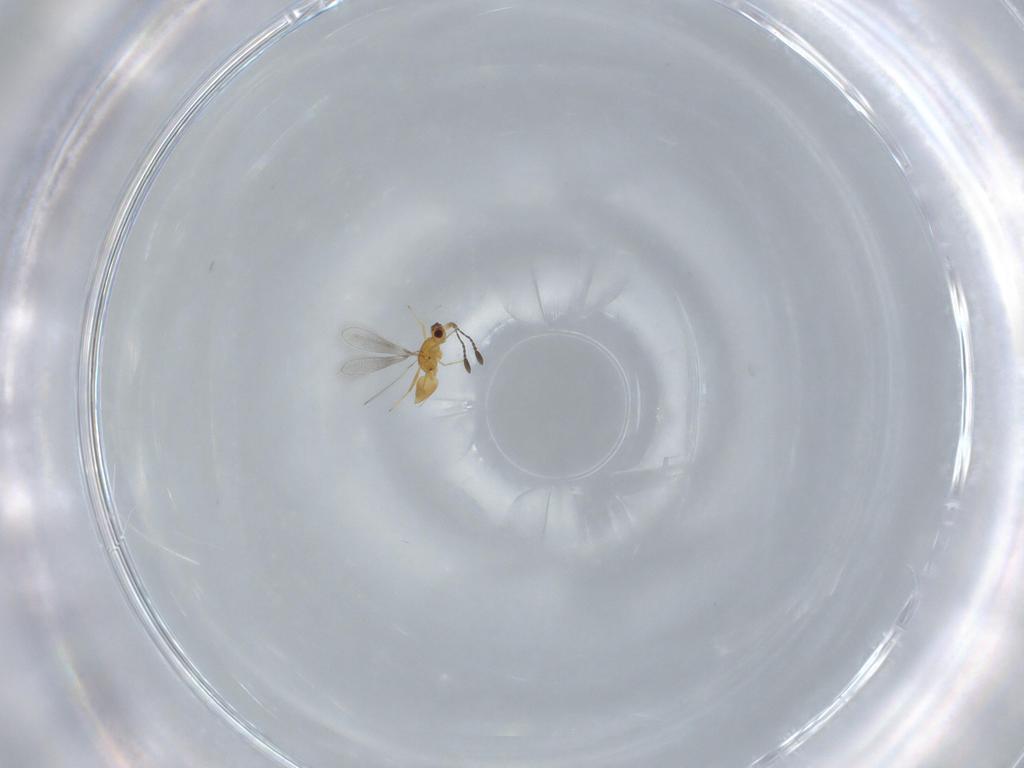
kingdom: Animalia
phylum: Arthropoda
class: Insecta
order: Hymenoptera
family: Mymaridae
